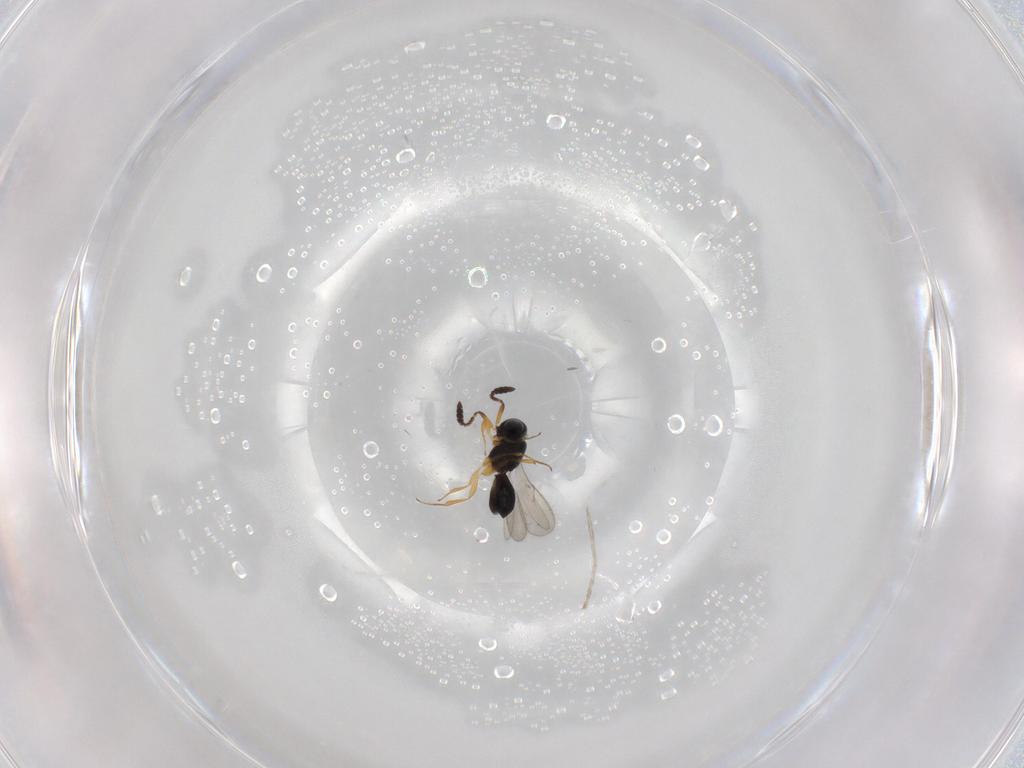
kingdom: Animalia
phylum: Arthropoda
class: Insecta
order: Hymenoptera
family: Scelionidae
